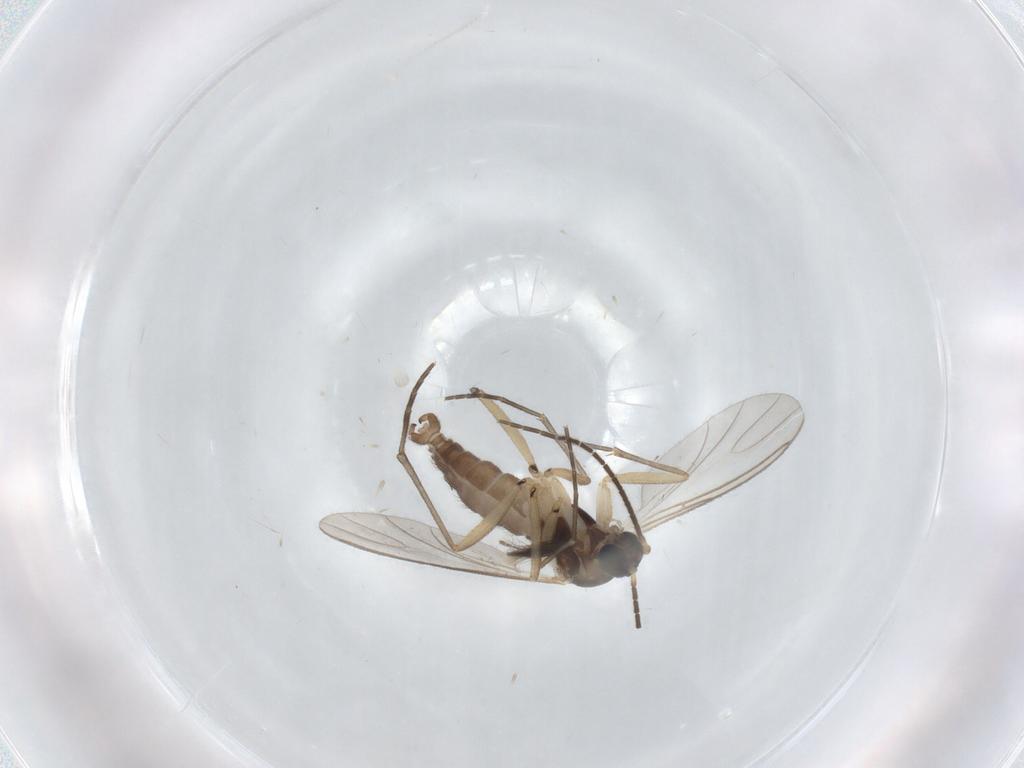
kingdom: Animalia
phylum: Arthropoda
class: Insecta
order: Diptera
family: Sciaridae
